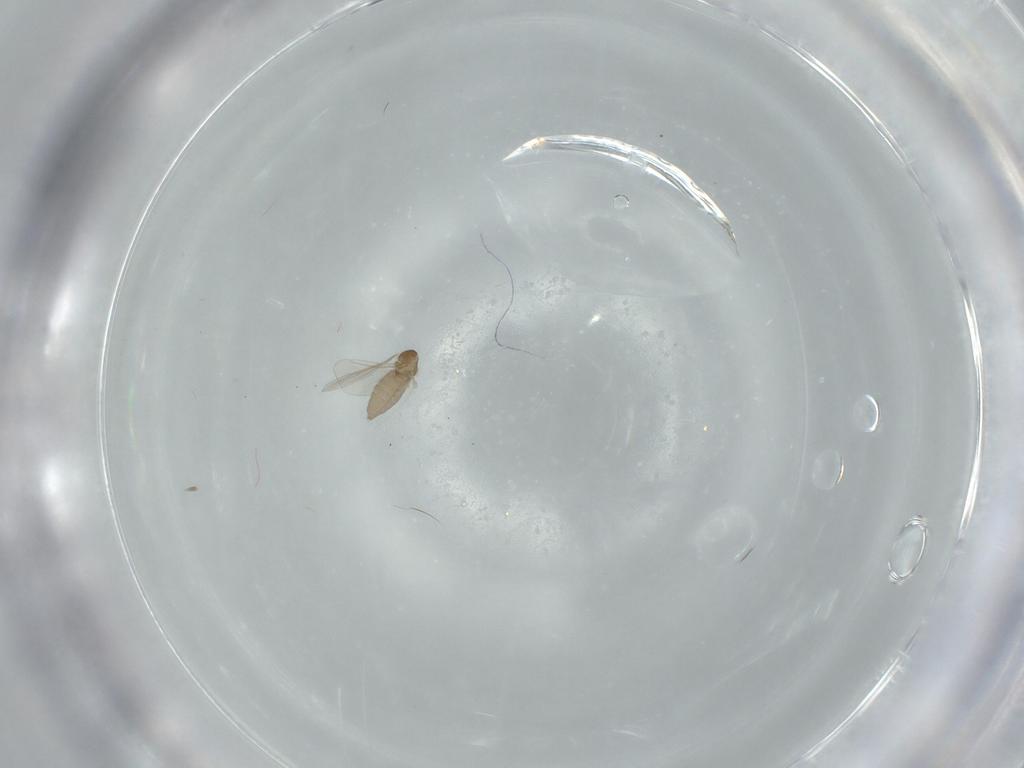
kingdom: Animalia
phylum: Arthropoda
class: Insecta
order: Diptera
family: Cecidomyiidae
